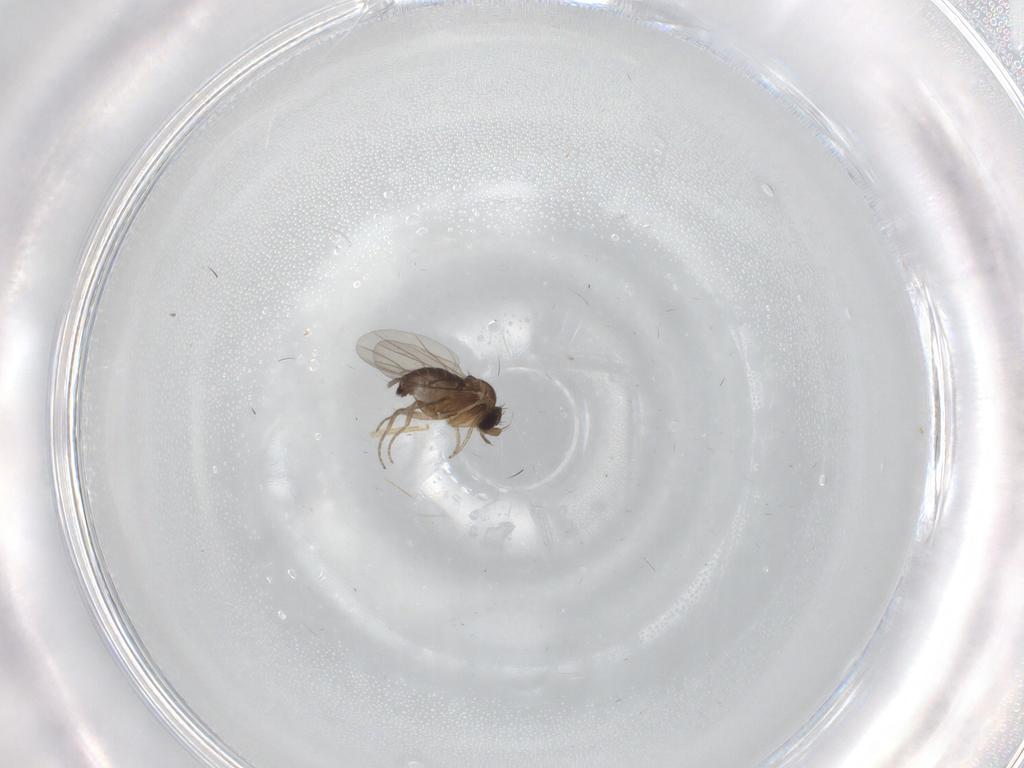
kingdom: Animalia
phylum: Arthropoda
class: Insecta
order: Diptera
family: Phoridae
